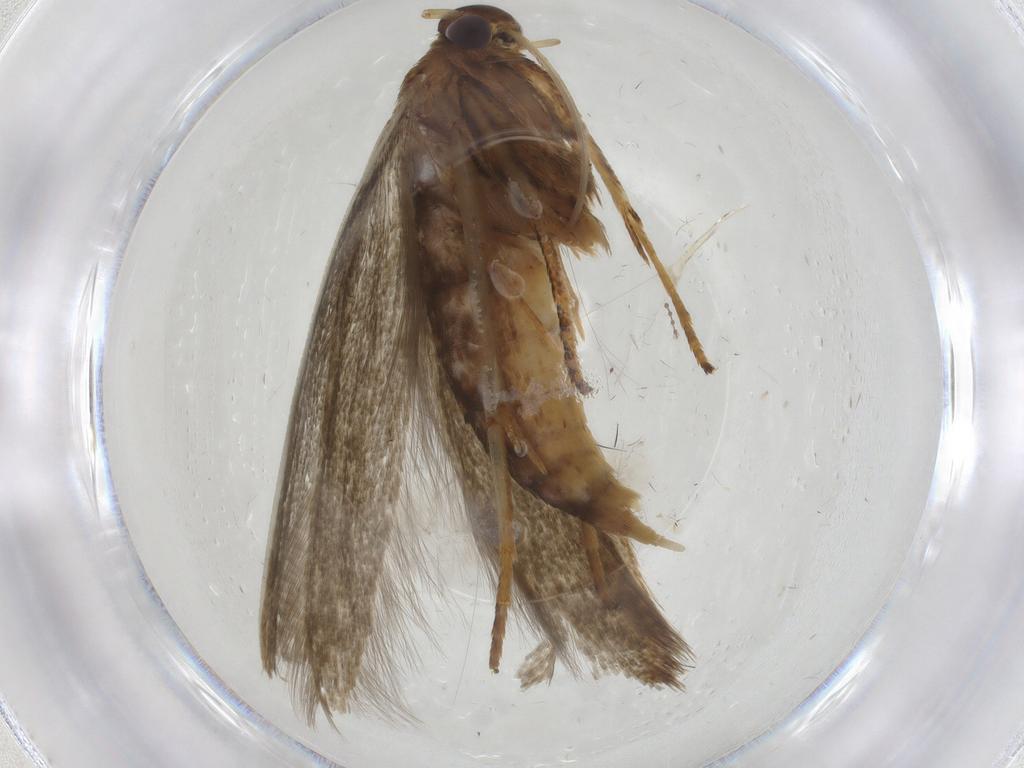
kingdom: Animalia
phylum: Arthropoda
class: Insecta
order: Lepidoptera
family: Blastobasidae
